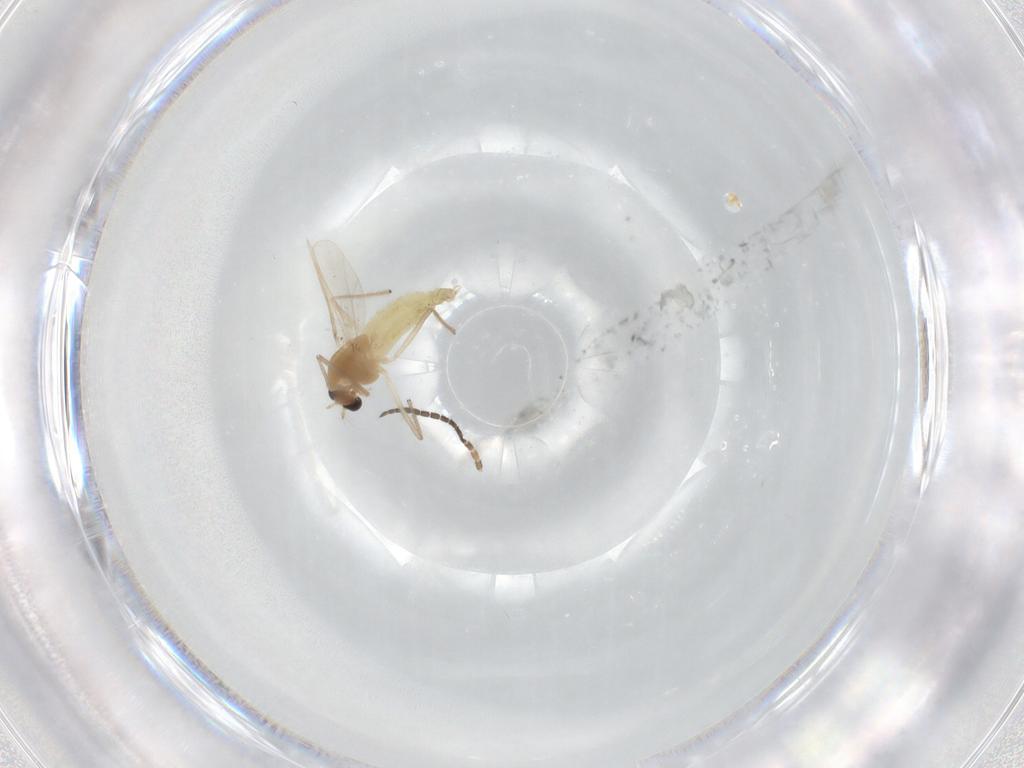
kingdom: Animalia
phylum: Arthropoda
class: Insecta
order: Diptera
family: Chironomidae
